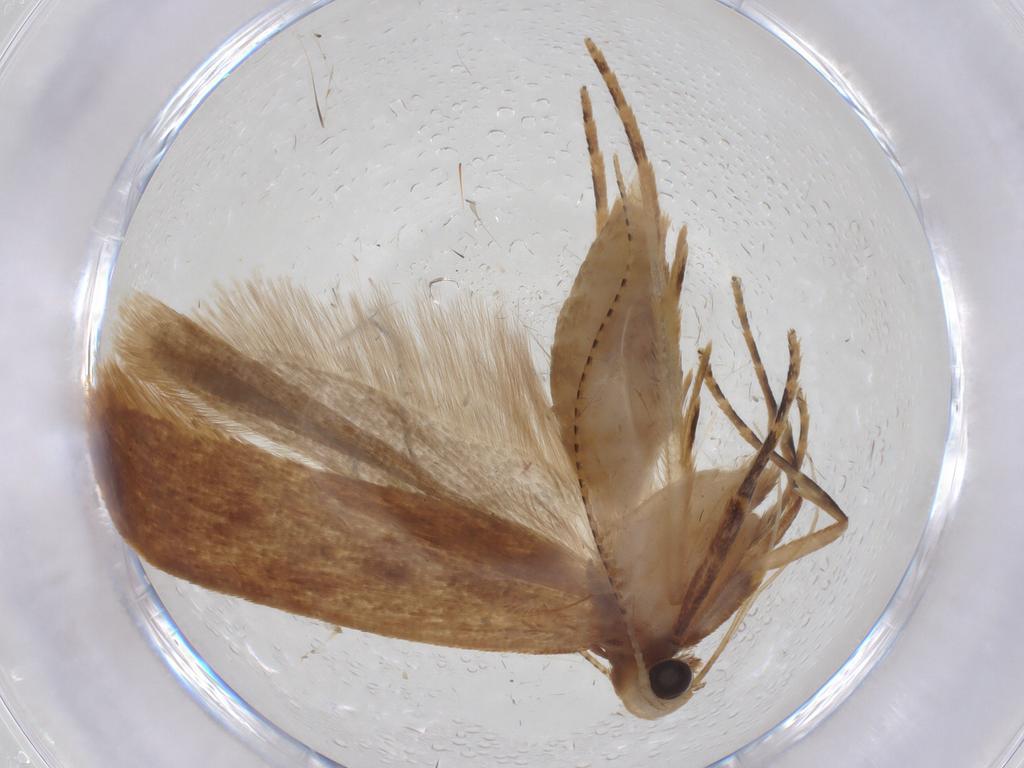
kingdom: Animalia
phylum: Arthropoda
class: Insecta
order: Lepidoptera
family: Gelechiidae
